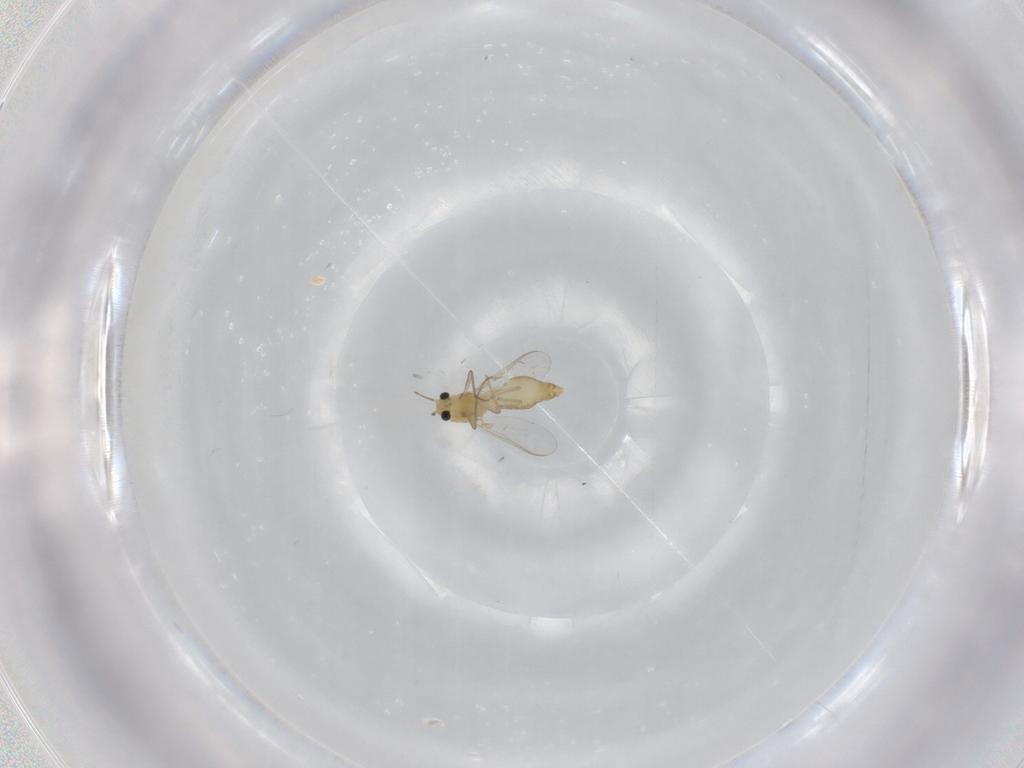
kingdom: Animalia
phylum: Arthropoda
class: Insecta
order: Diptera
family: Chironomidae
